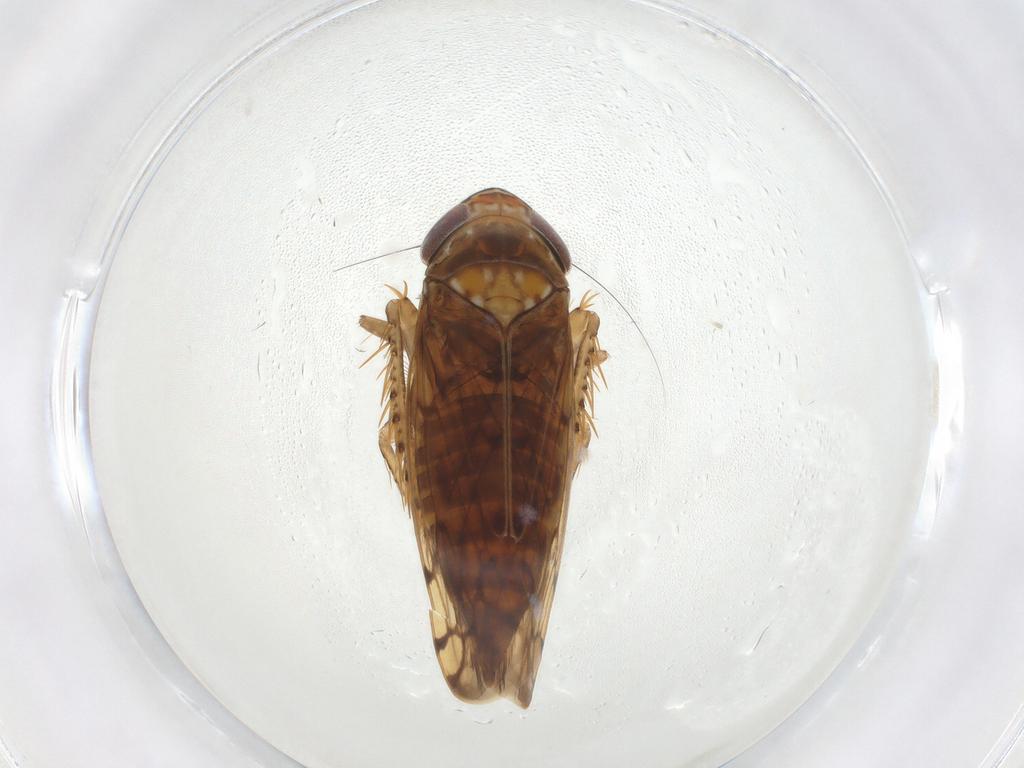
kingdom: Animalia
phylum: Arthropoda
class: Insecta
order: Hemiptera
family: Cicadellidae
